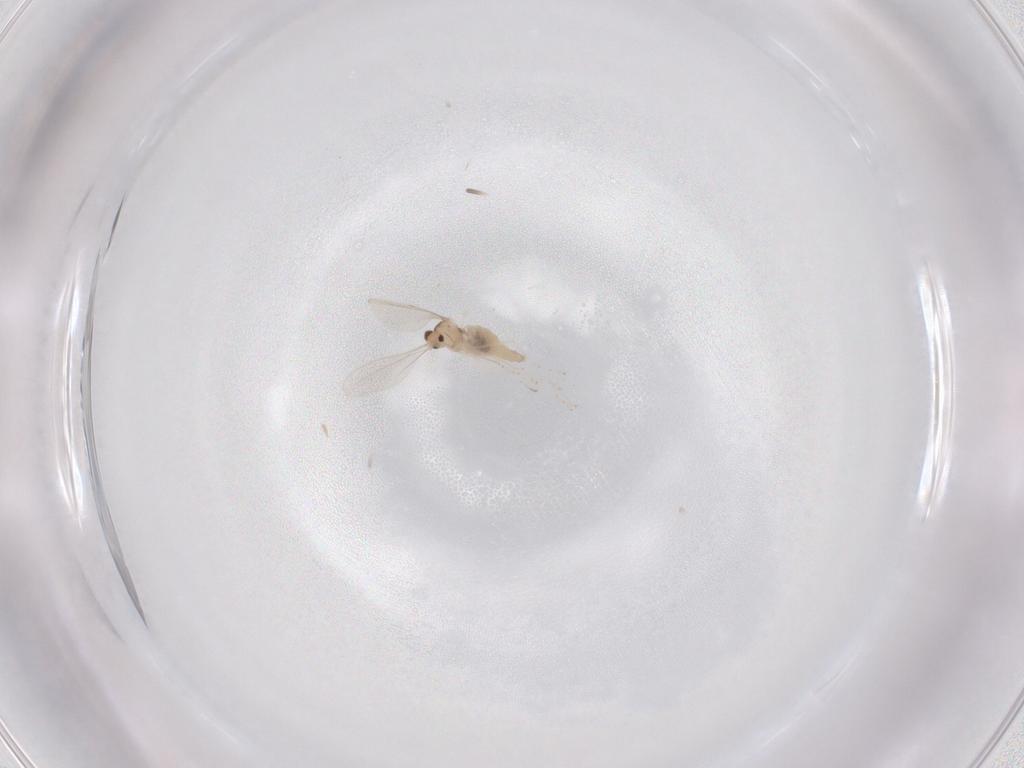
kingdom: Animalia
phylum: Arthropoda
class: Insecta
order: Diptera
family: Cecidomyiidae
